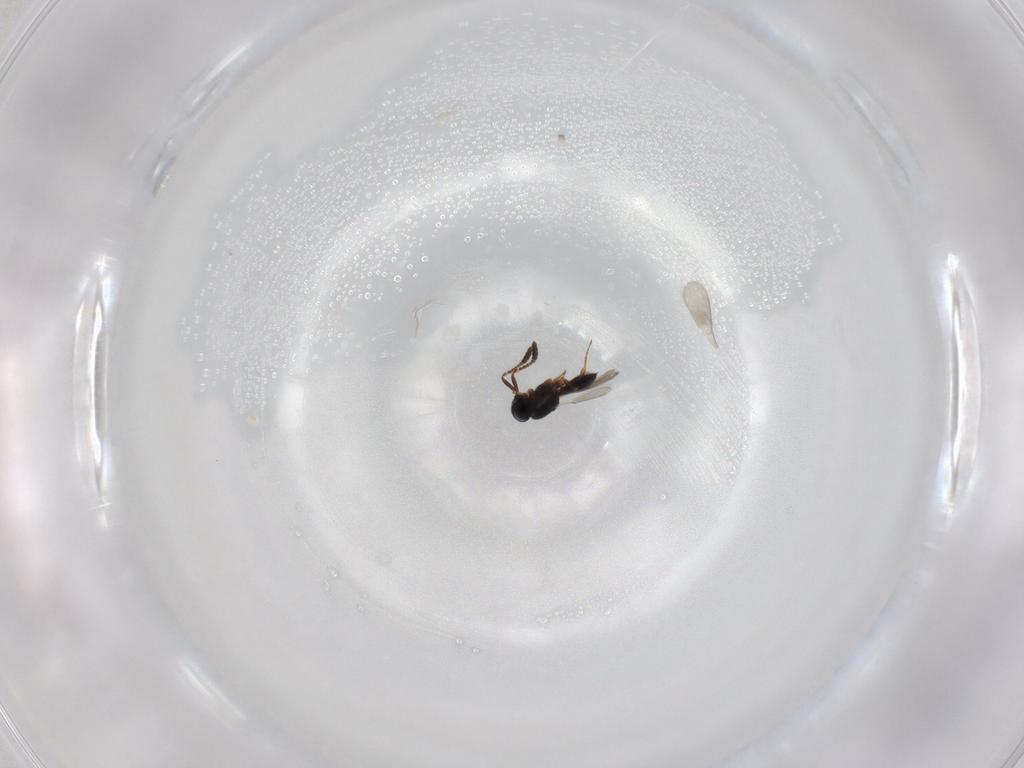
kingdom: Animalia
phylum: Arthropoda
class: Insecta
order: Hymenoptera
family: Scelionidae
